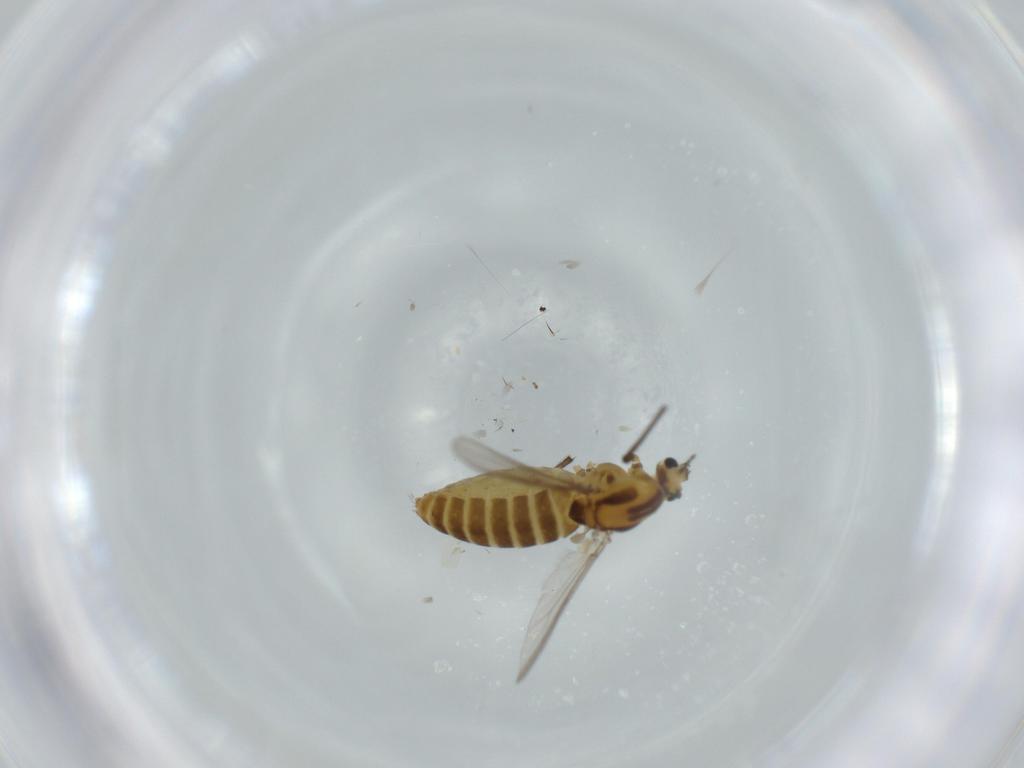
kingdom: Animalia
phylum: Arthropoda
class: Insecta
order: Diptera
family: Chironomidae
